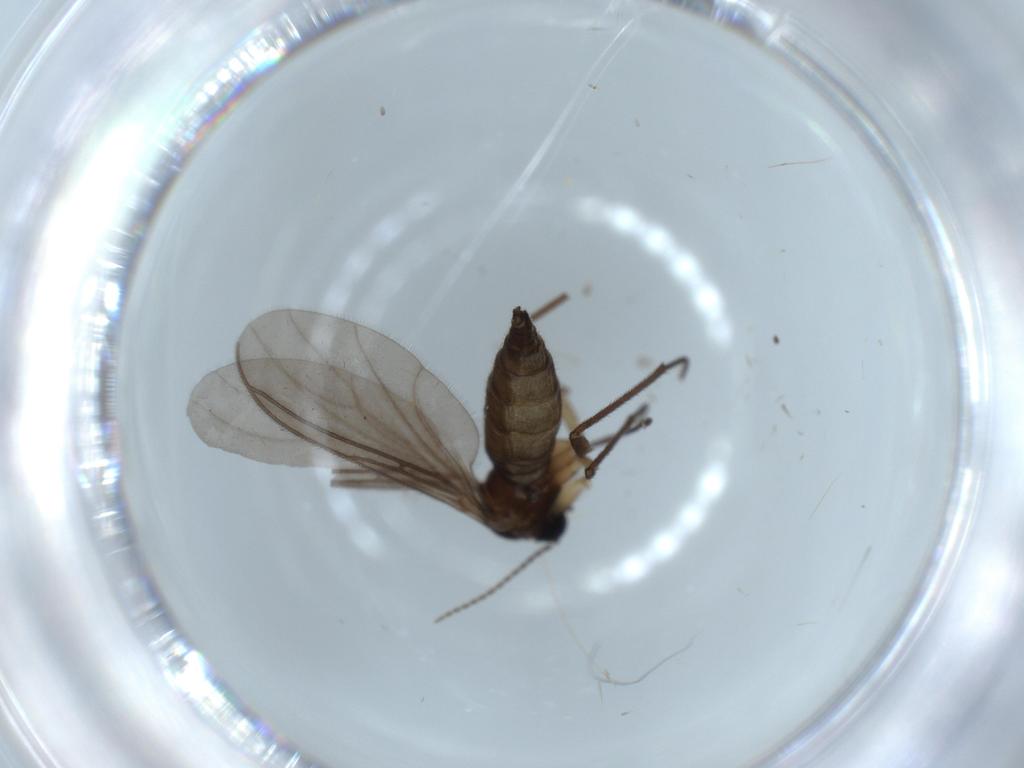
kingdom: Animalia
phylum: Arthropoda
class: Insecta
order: Diptera
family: Sciaridae
